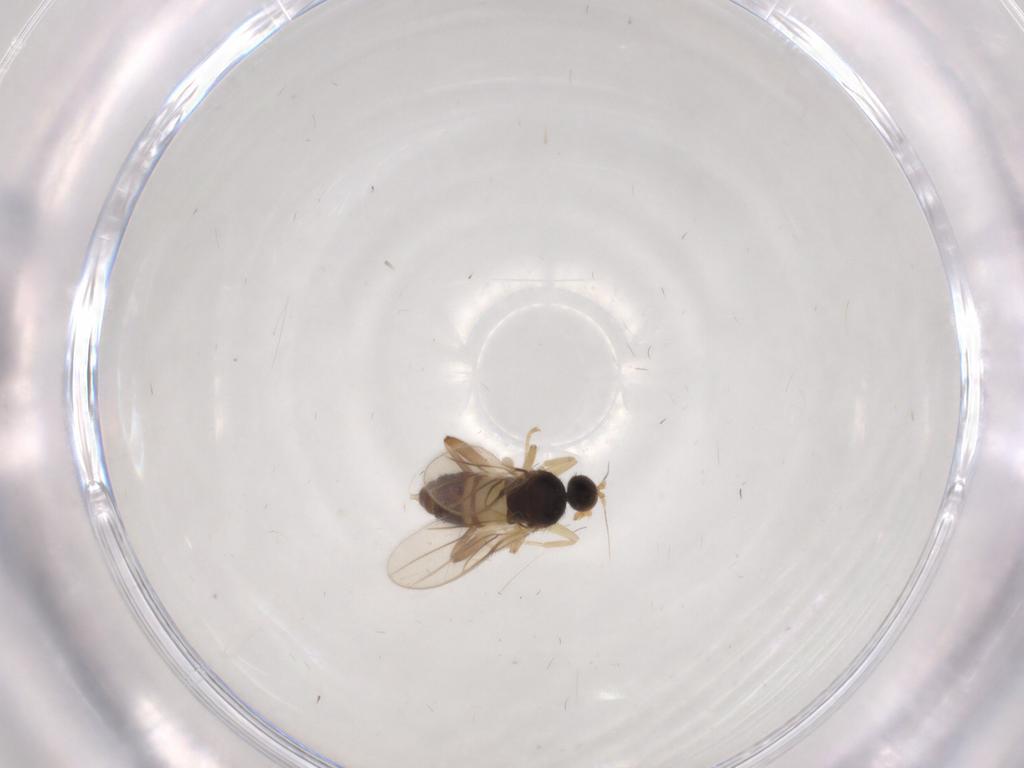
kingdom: Animalia
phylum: Arthropoda
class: Insecta
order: Diptera
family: Hybotidae
